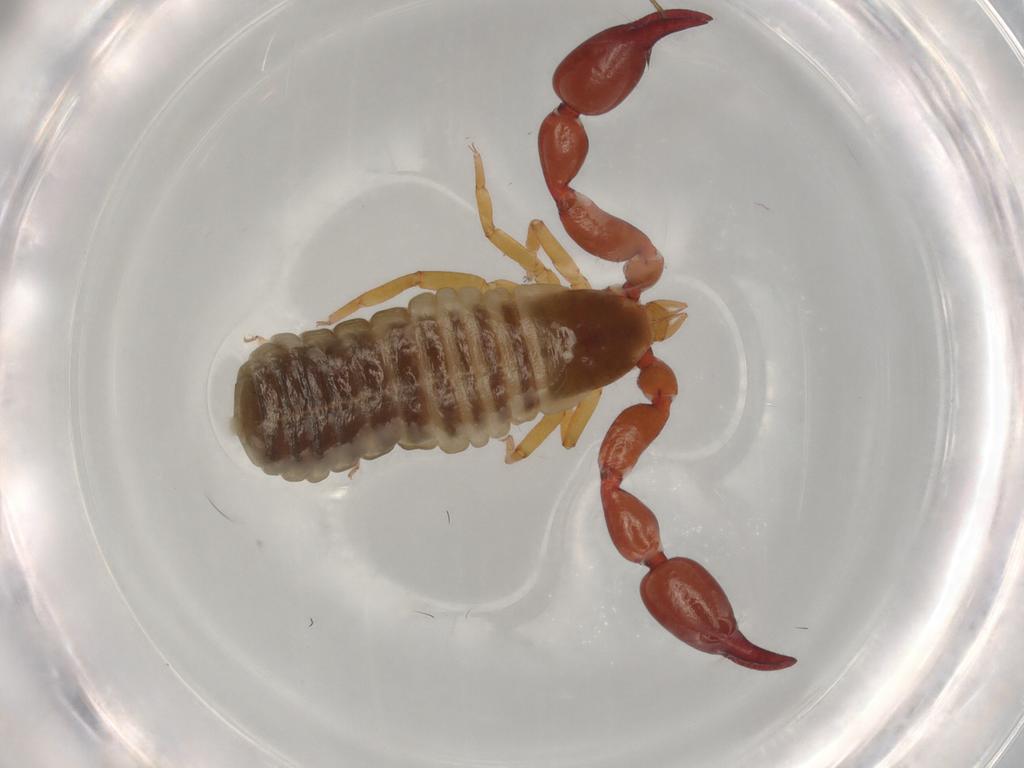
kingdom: Animalia
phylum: Arthropoda
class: Arachnida
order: Pseudoscorpiones
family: Chernetidae
